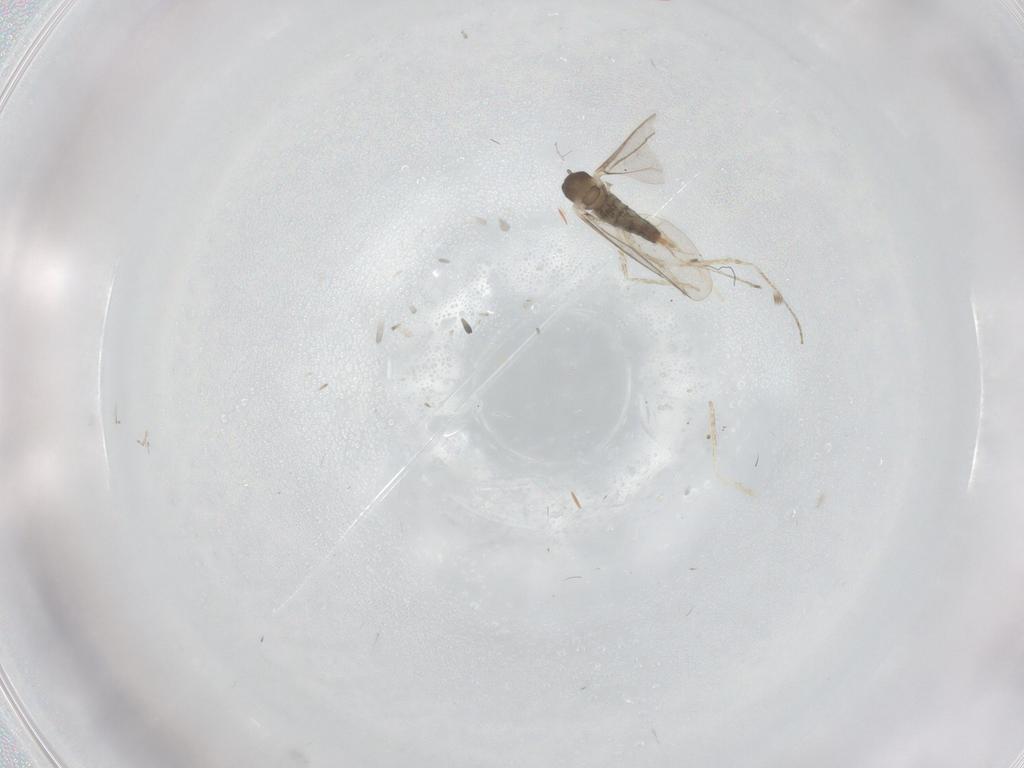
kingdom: Animalia
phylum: Arthropoda
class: Insecta
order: Diptera
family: Cecidomyiidae
